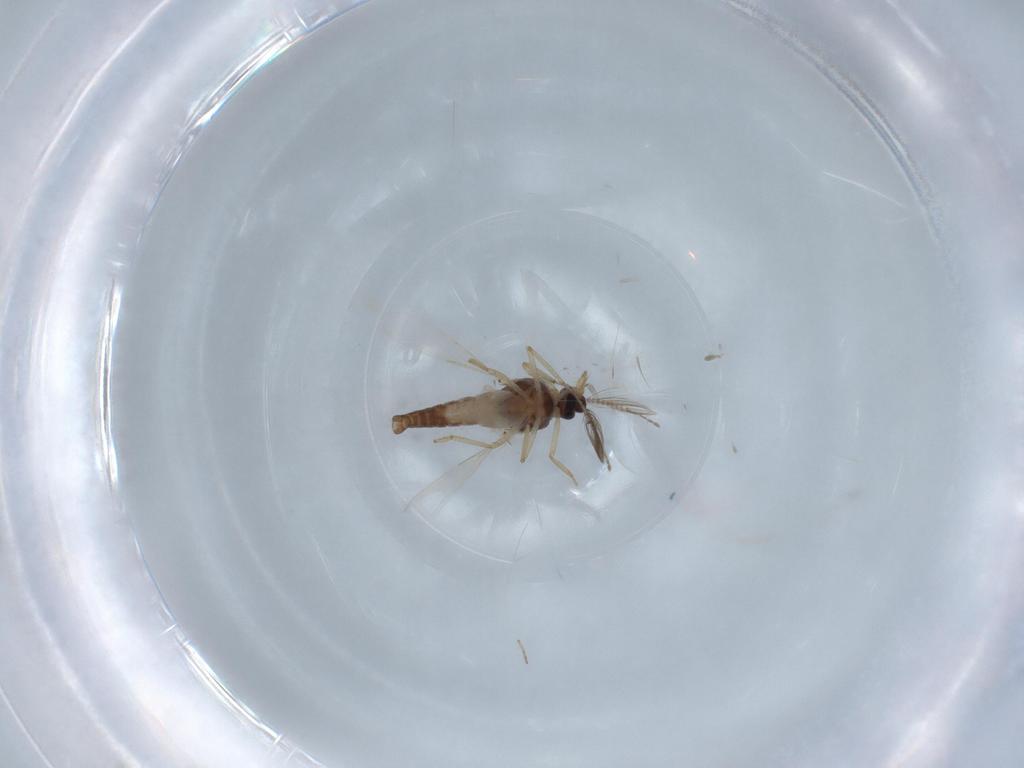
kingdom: Animalia
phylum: Arthropoda
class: Insecta
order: Diptera
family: Ceratopogonidae
